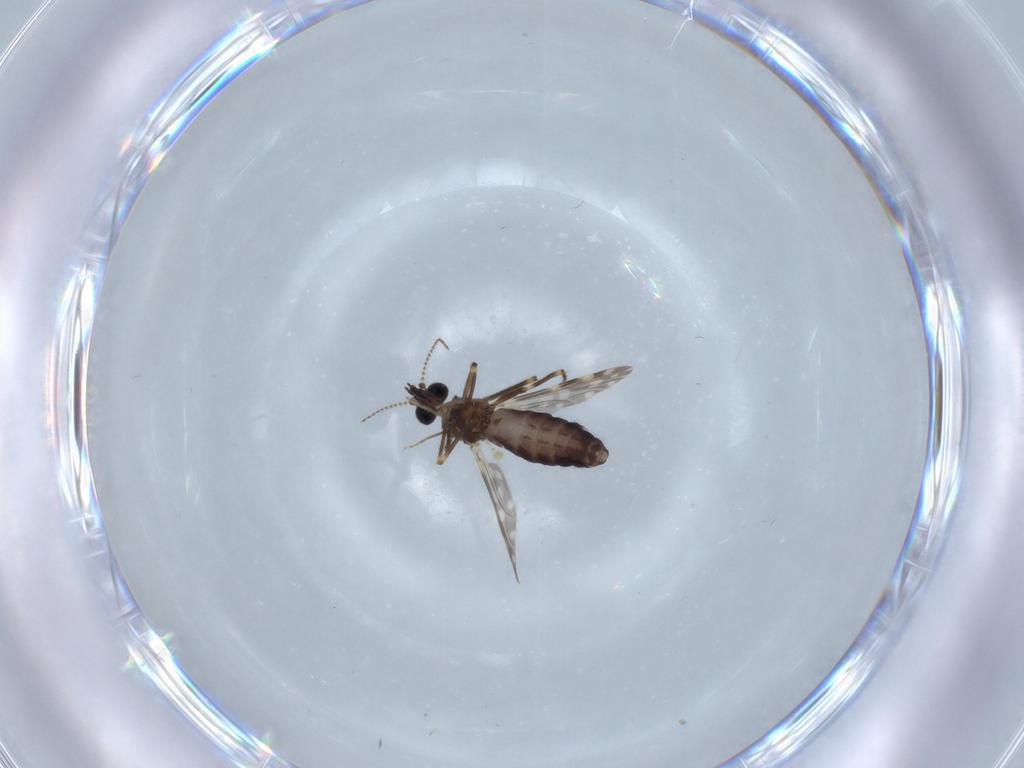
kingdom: Animalia
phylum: Arthropoda
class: Insecta
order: Diptera
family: Ceratopogonidae
